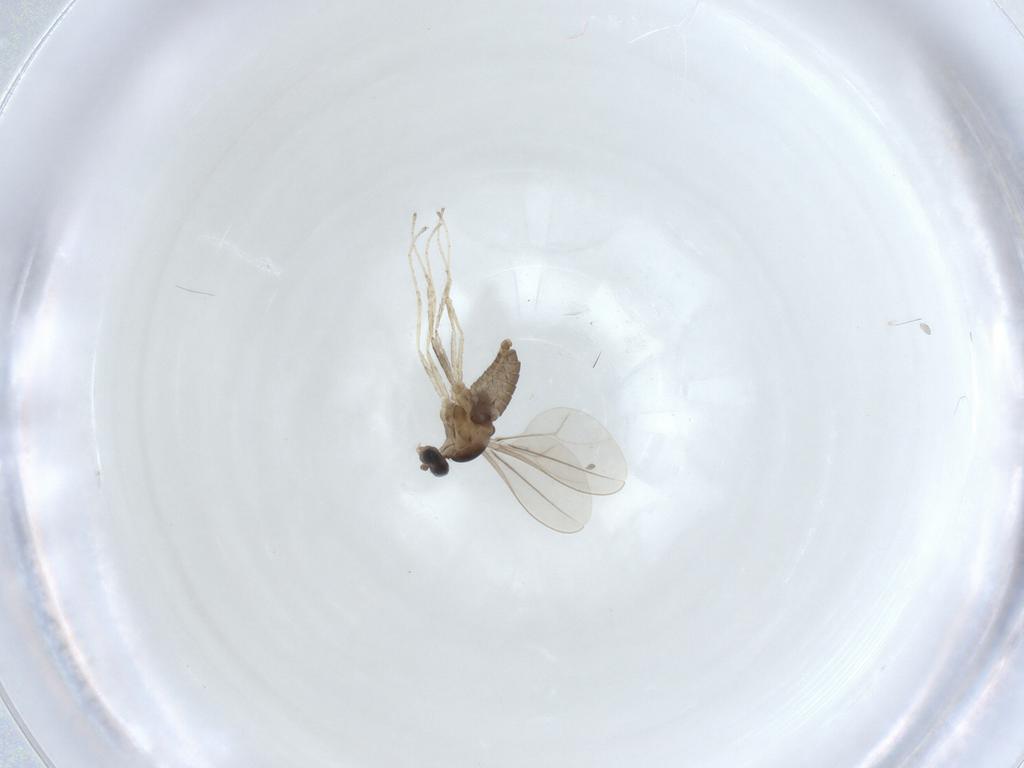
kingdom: Animalia
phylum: Arthropoda
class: Insecta
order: Diptera
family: Cecidomyiidae
